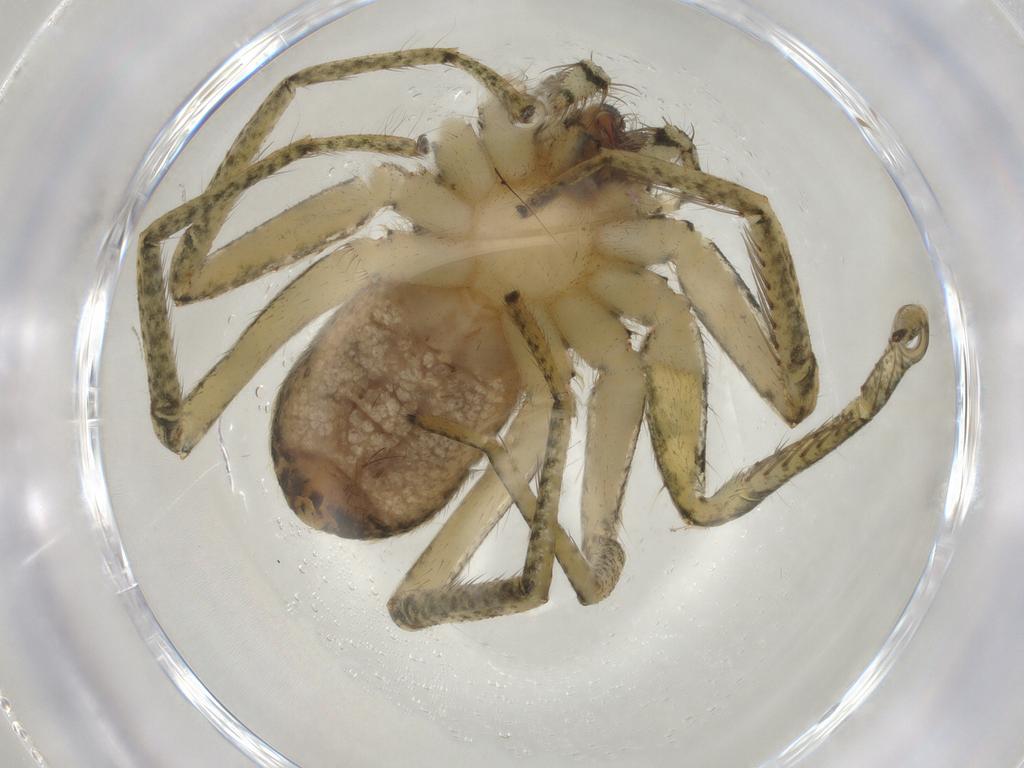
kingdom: Animalia
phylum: Arthropoda
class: Arachnida
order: Araneae
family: Selenopidae
